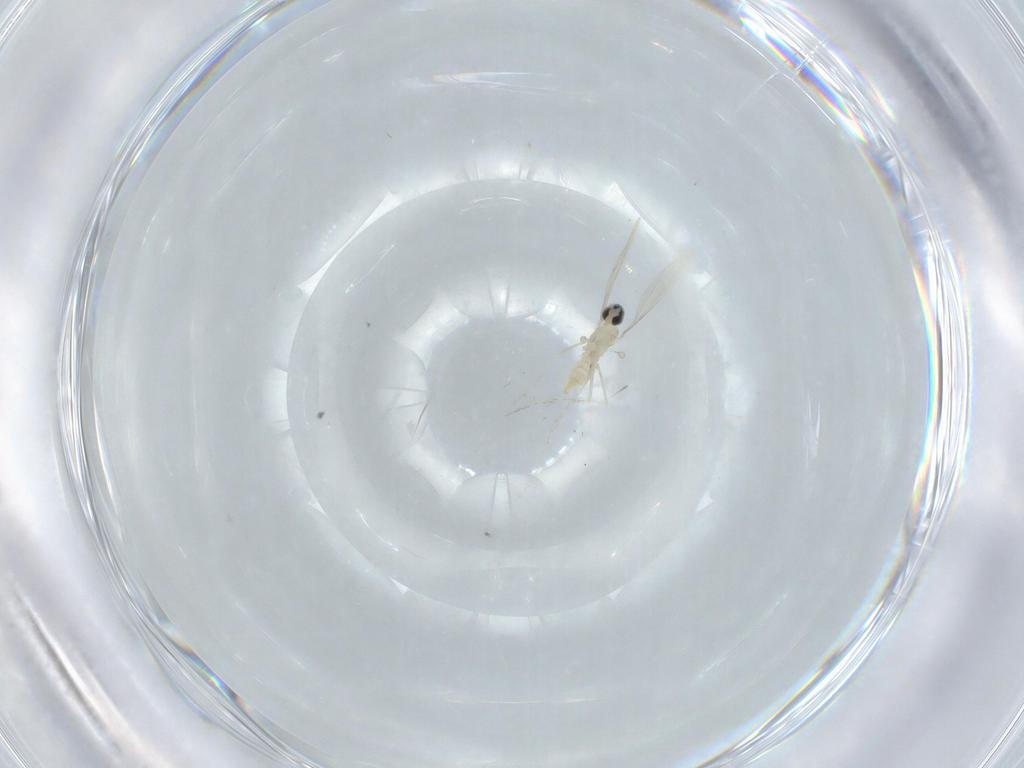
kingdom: Animalia
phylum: Arthropoda
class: Insecta
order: Diptera
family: Cecidomyiidae
